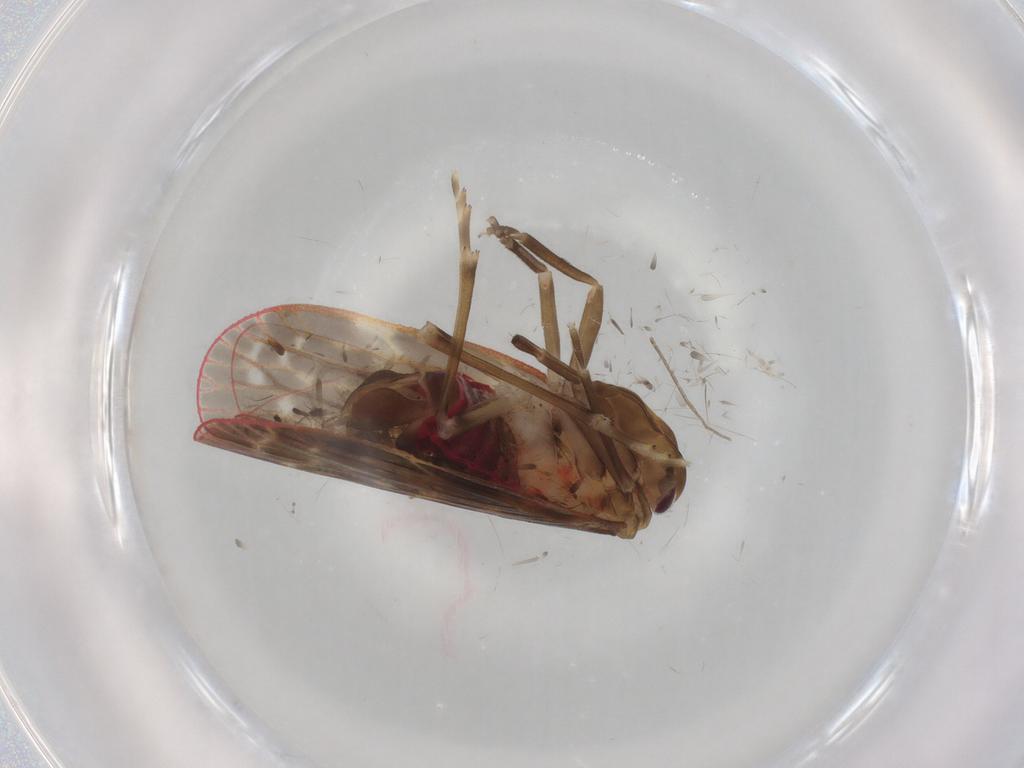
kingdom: Animalia
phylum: Arthropoda
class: Insecta
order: Hemiptera
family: Achilidae
